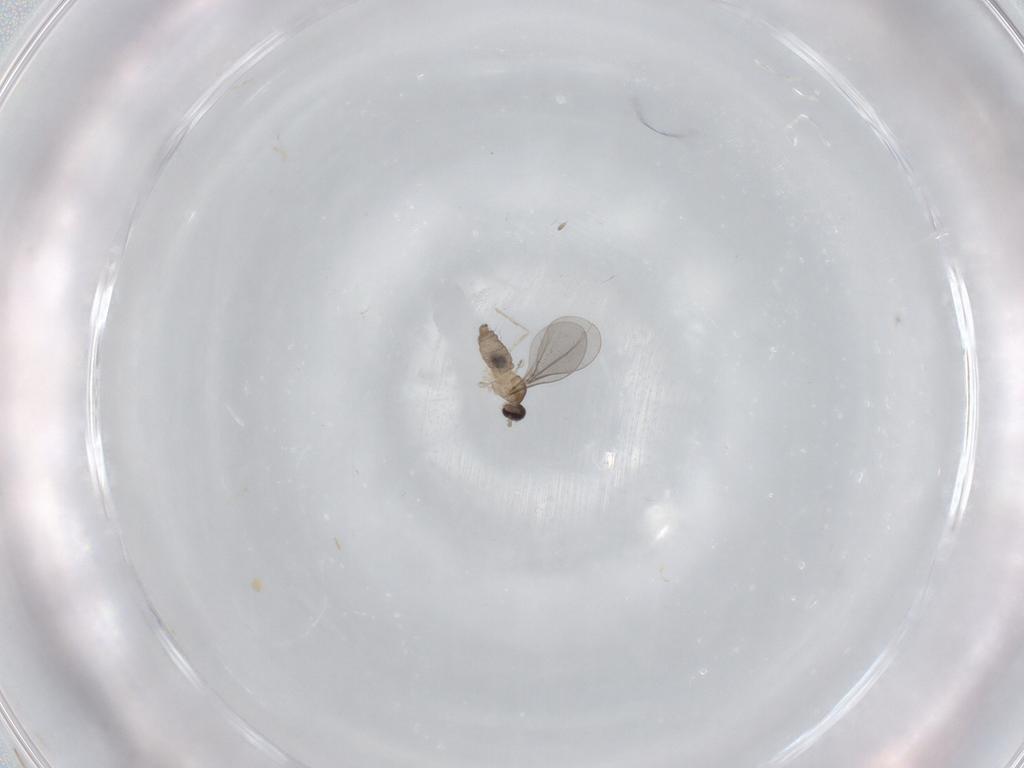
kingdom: Animalia
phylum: Arthropoda
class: Insecta
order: Diptera
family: Cecidomyiidae
